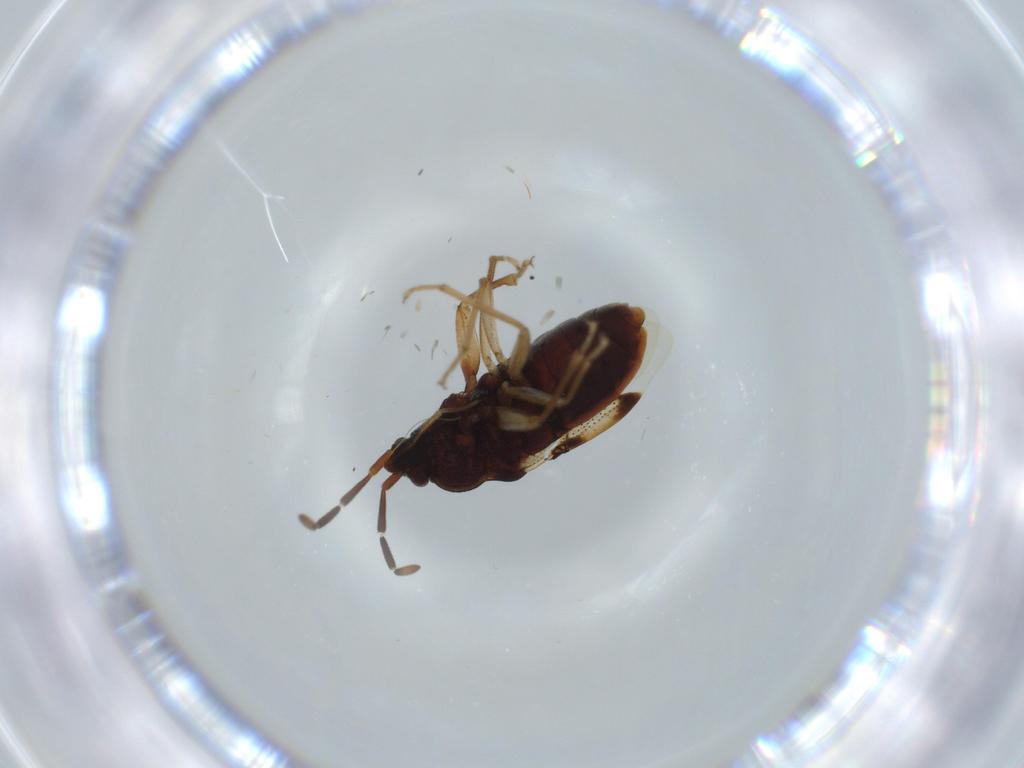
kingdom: Animalia
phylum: Arthropoda
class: Insecta
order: Hemiptera
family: Rhyparochromidae
